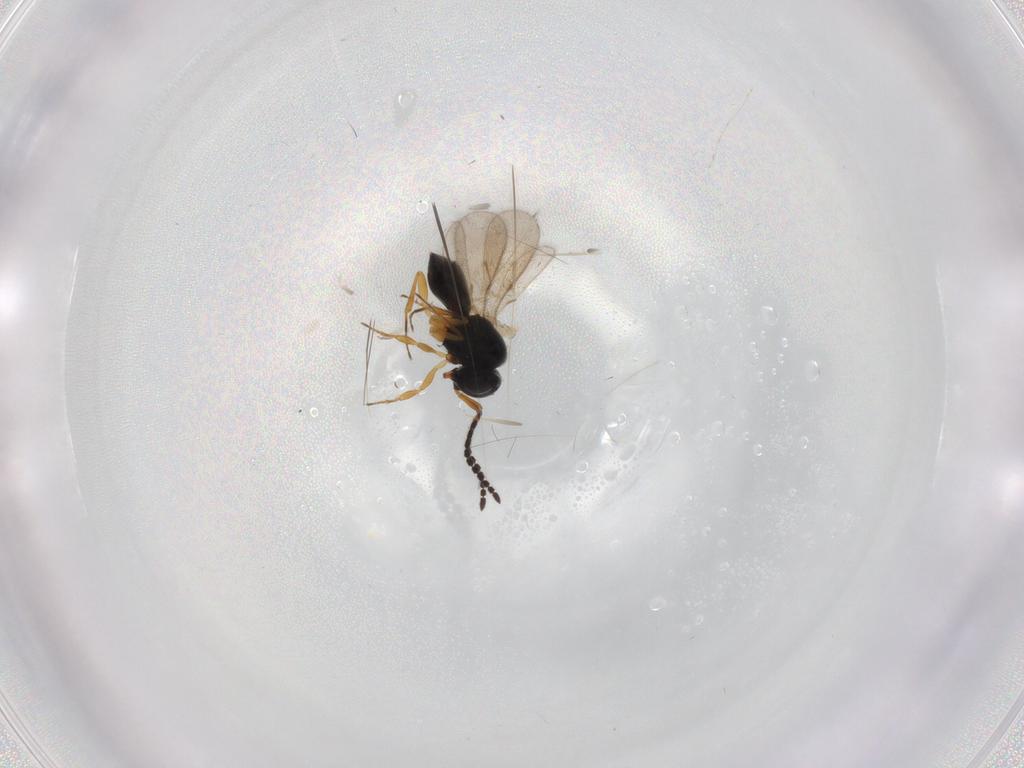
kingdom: Animalia
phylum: Arthropoda
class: Insecta
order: Hymenoptera
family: Scelionidae
